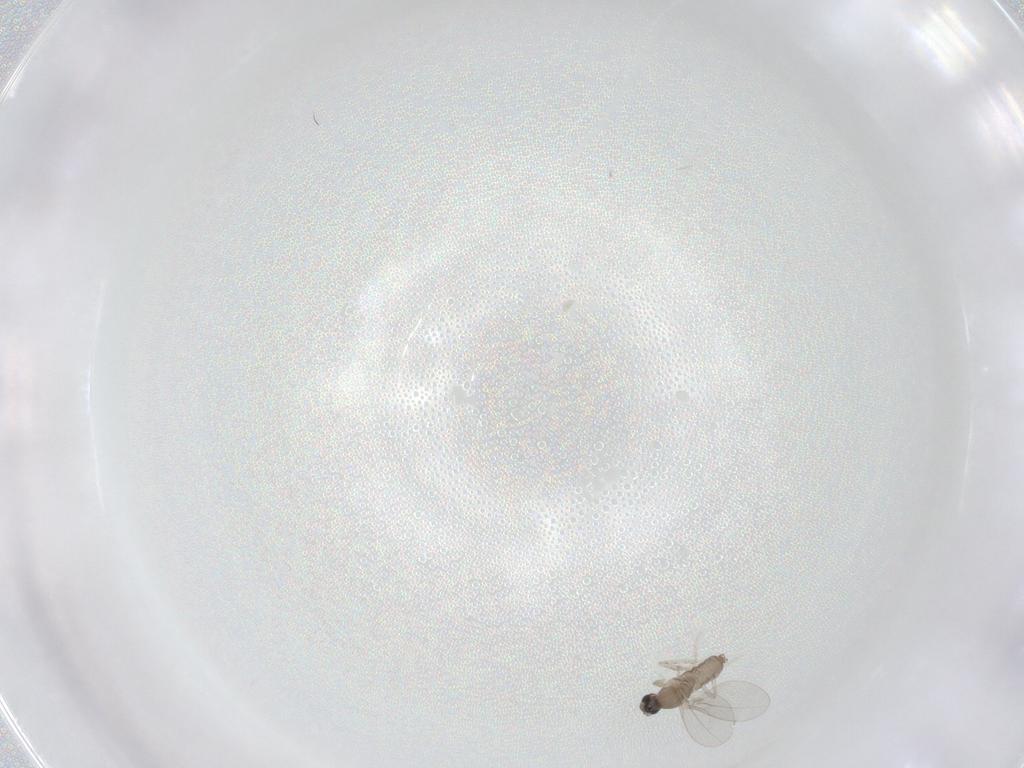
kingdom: Animalia
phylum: Arthropoda
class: Insecta
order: Diptera
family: Cecidomyiidae
